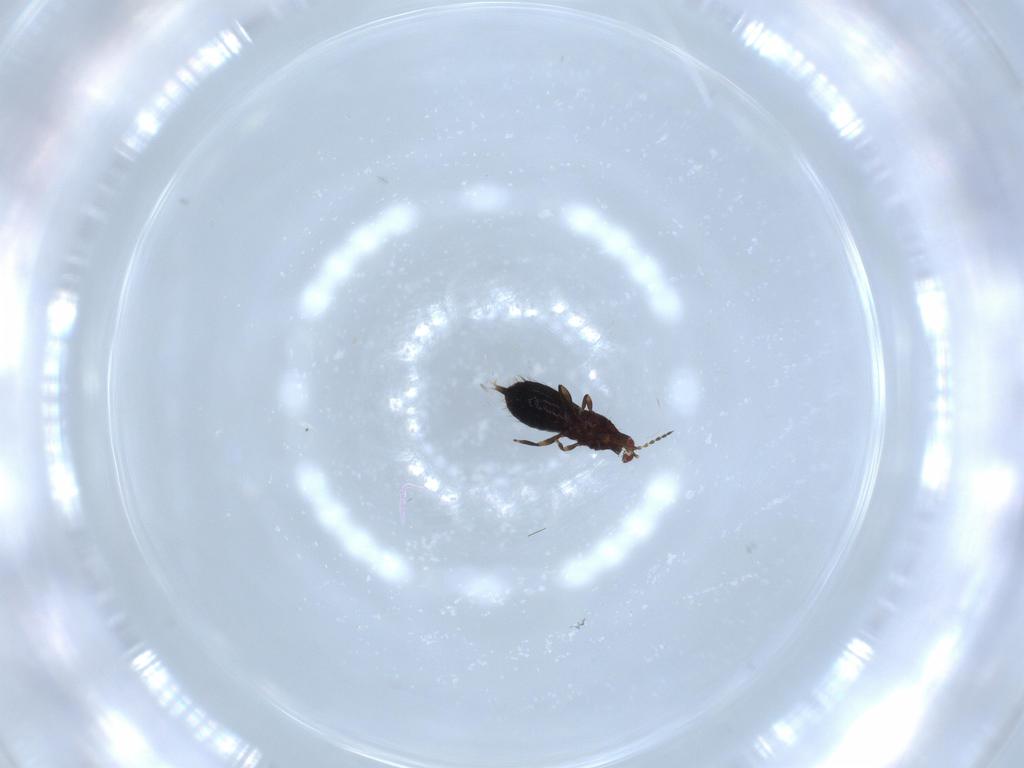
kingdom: Animalia
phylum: Arthropoda
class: Insecta
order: Thysanoptera
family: Phlaeothripidae
